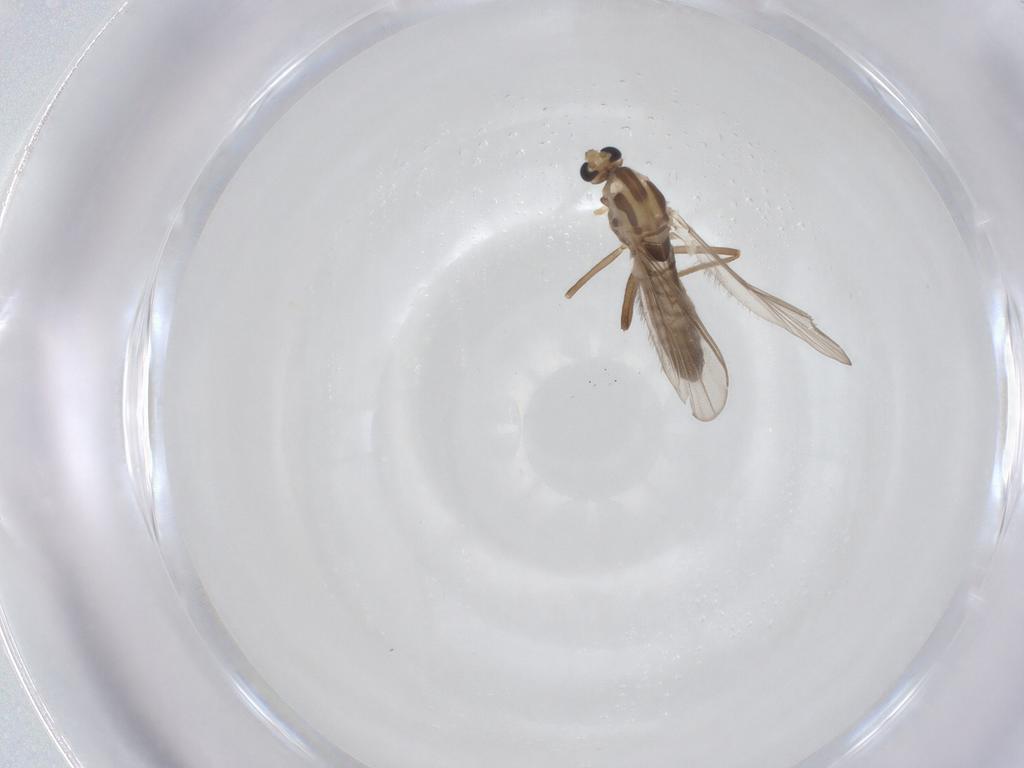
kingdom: Animalia
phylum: Arthropoda
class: Insecta
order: Diptera
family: Chironomidae
